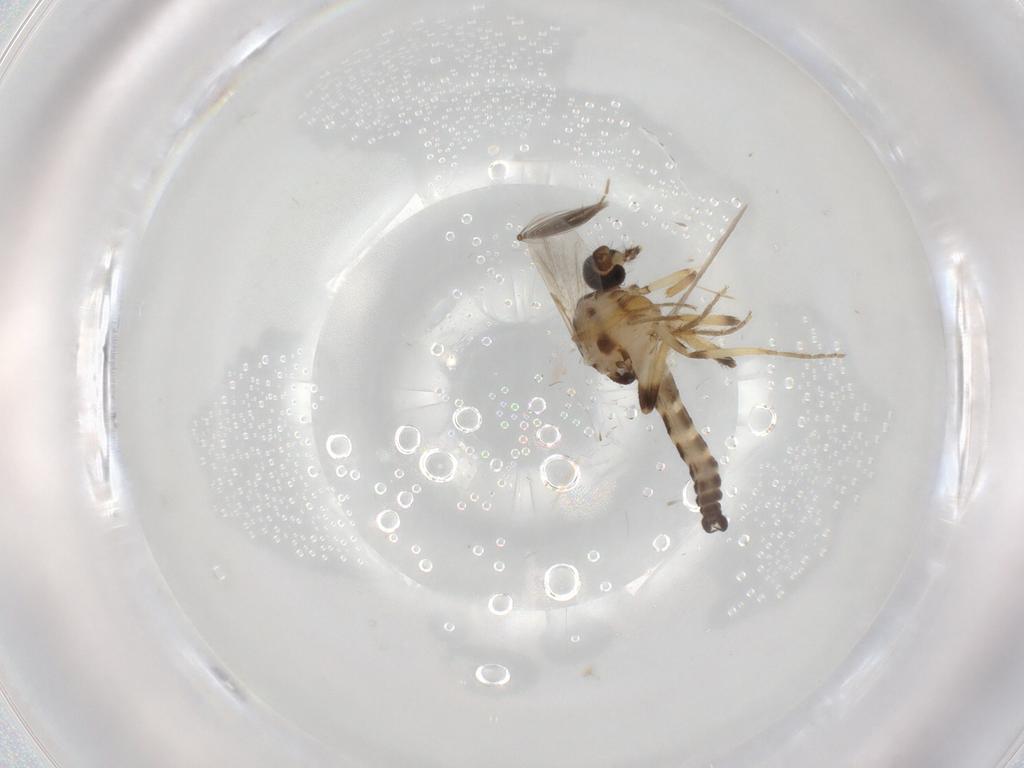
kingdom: Animalia
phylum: Arthropoda
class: Insecta
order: Diptera
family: Ceratopogonidae
